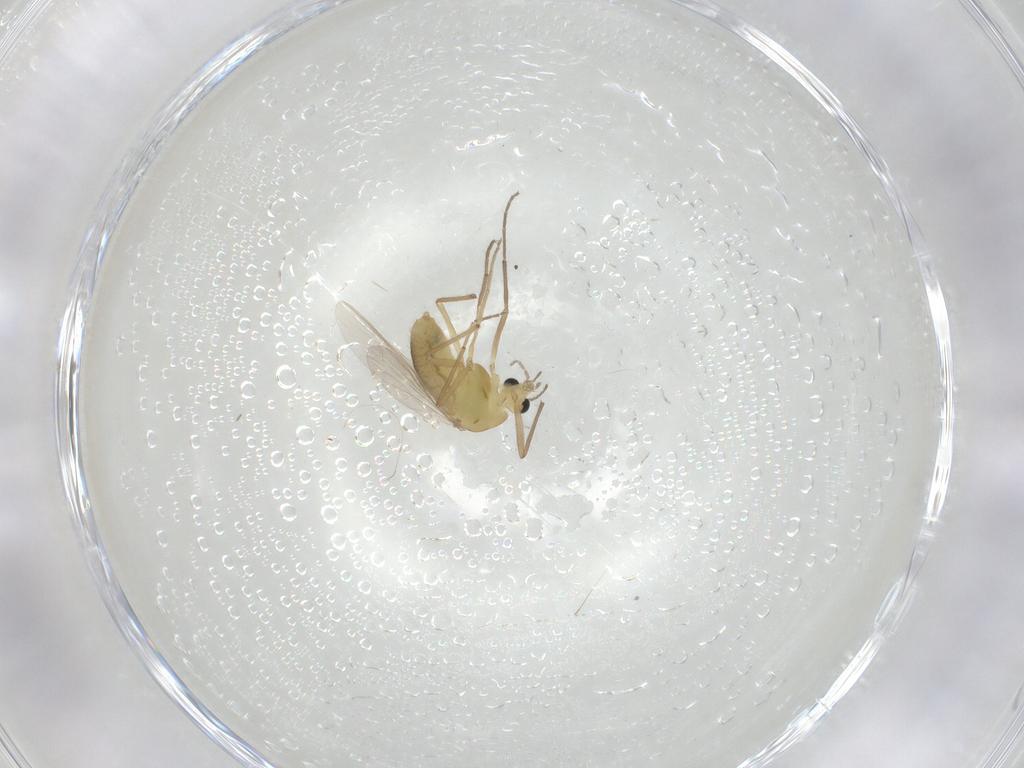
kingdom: Animalia
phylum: Arthropoda
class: Insecta
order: Diptera
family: Chironomidae
